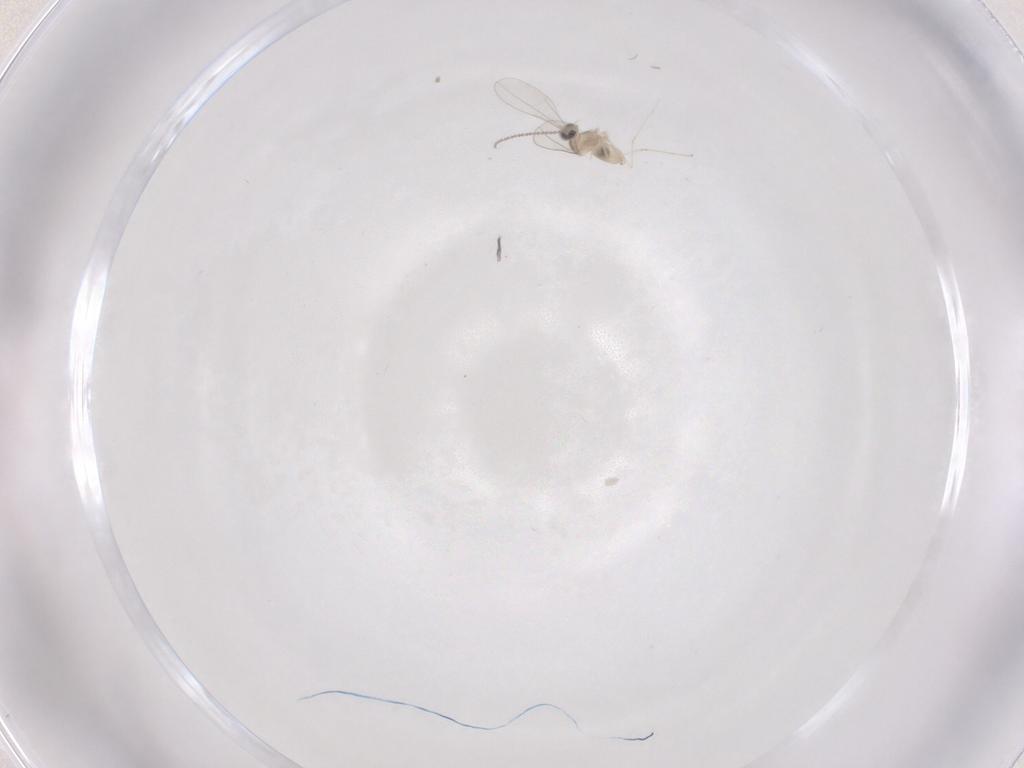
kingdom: Animalia
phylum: Arthropoda
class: Insecta
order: Diptera
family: Cecidomyiidae
